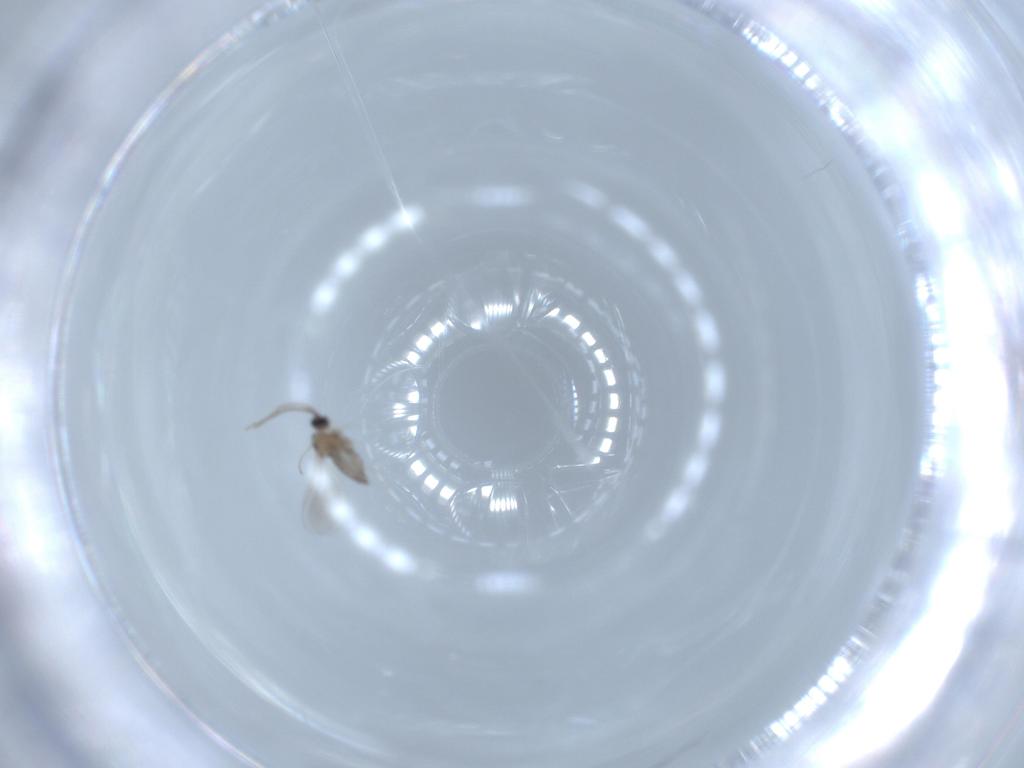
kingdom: Animalia
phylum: Arthropoda
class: Insecta
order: Diptera
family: Cecidomyiidae
